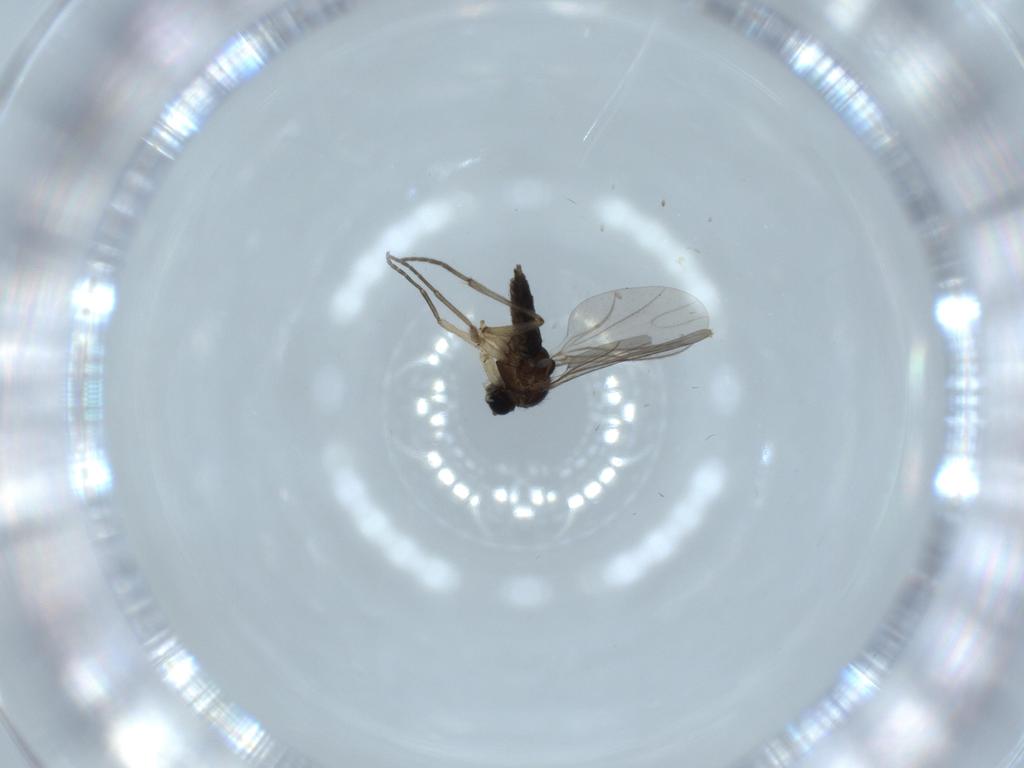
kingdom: Animalia
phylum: Arthropoda
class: Insecta
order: Diptera
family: Sciaridae
